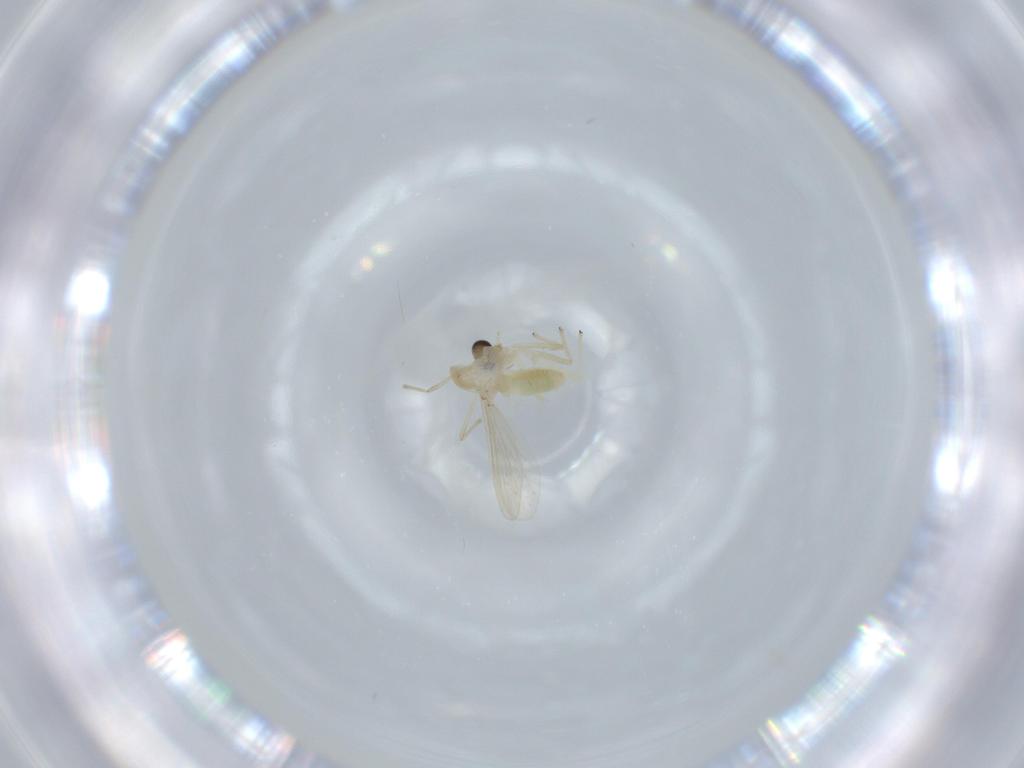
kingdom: Animalia
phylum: Arthropoda
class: Insecta
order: Diptera
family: Chironomidae
